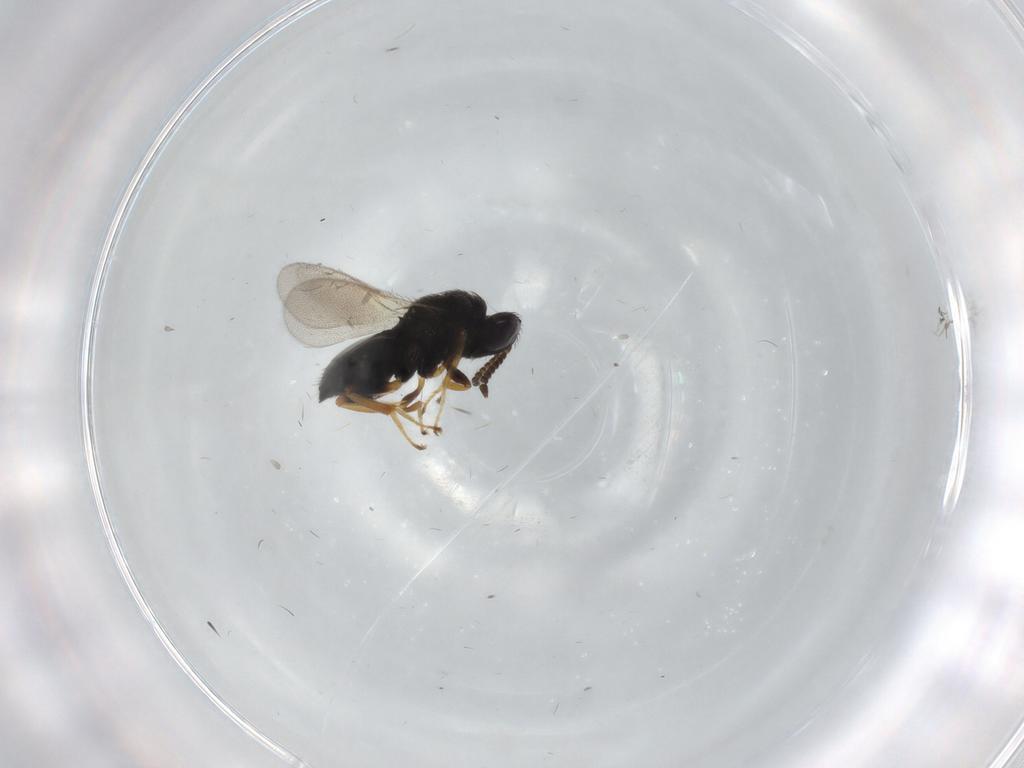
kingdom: Animalia
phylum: Arthropoda
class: Insecta
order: Hymenoptera
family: Pteromalidae
